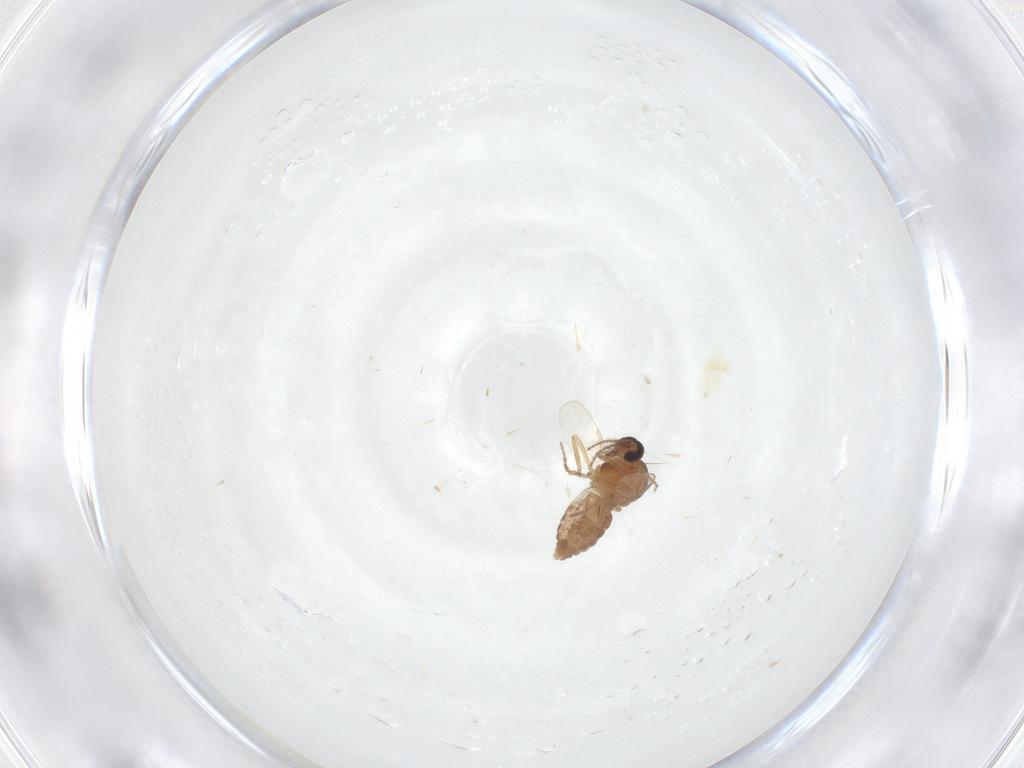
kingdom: Animalia
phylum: Arthropoda
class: Insecta
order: Diptera
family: Ceratopogonidae
